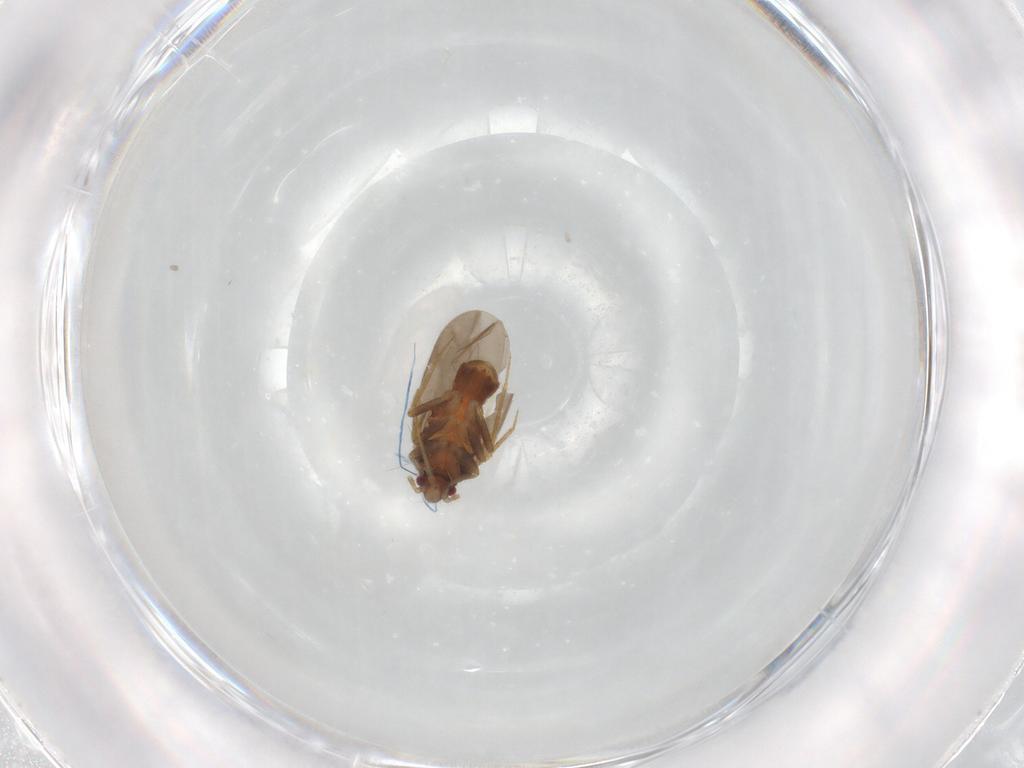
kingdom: Animalia
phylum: Arthropoda
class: Insecta
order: Hemiptera
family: Ceratocombidae
